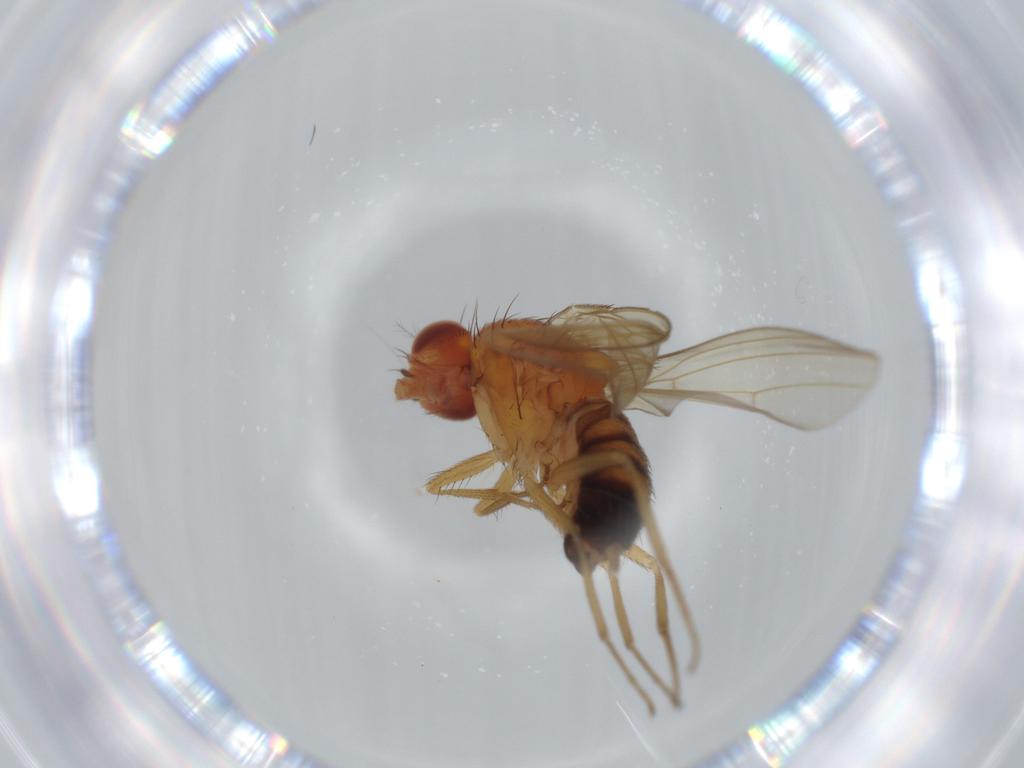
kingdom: Animalia
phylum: Arthropoda
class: Insecta
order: Diptera
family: Drosophilidae
